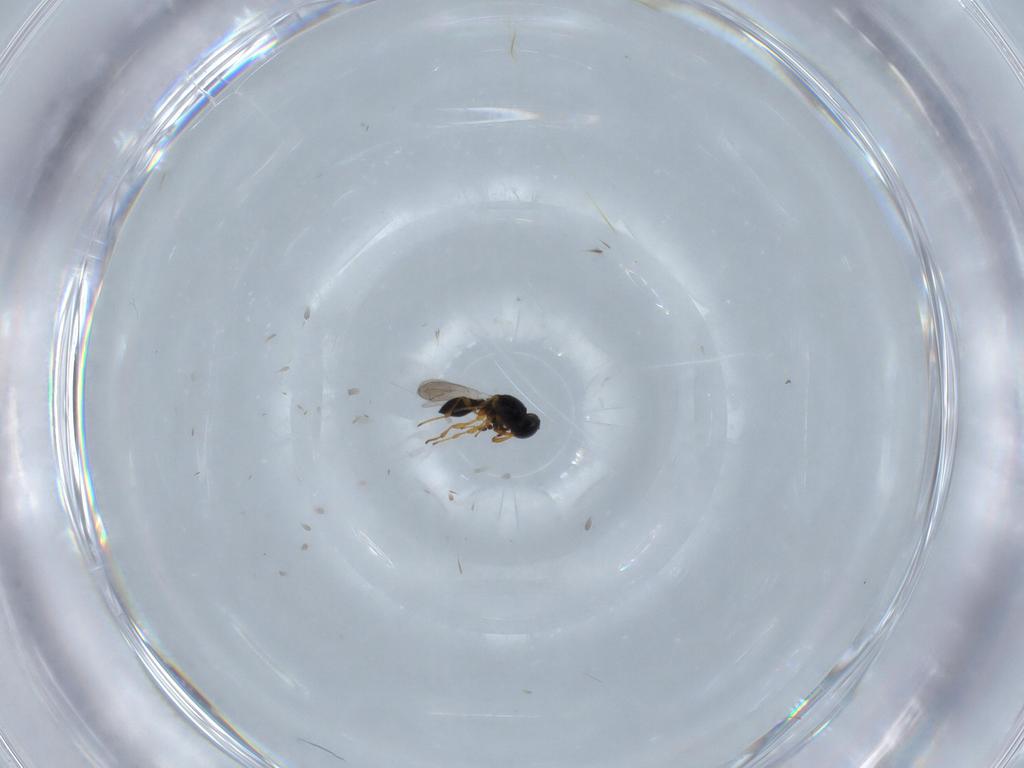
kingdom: Animalia
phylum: Arthropoda
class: Insecta
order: Hymenoptera
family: Platygastridae
